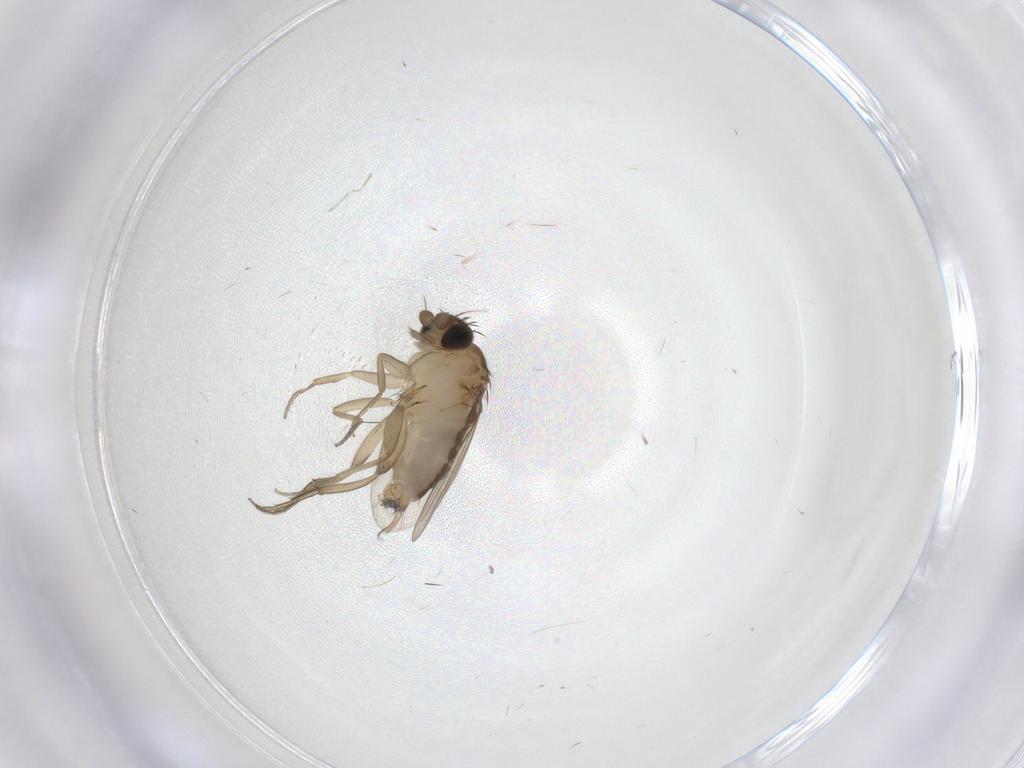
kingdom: Animalia
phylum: Arthropoda
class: Insecta
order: Diptera
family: Phoridae
